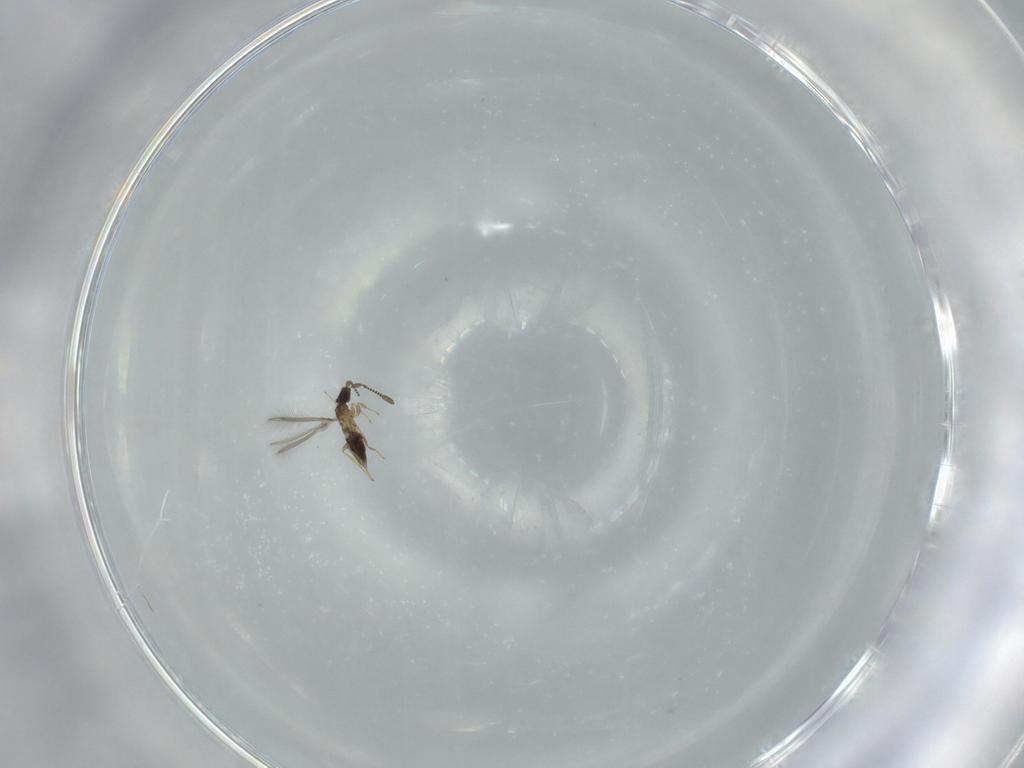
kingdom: Animalia
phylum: Arthropoda
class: Insecta
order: Hymenoptera
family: Mymaridae
